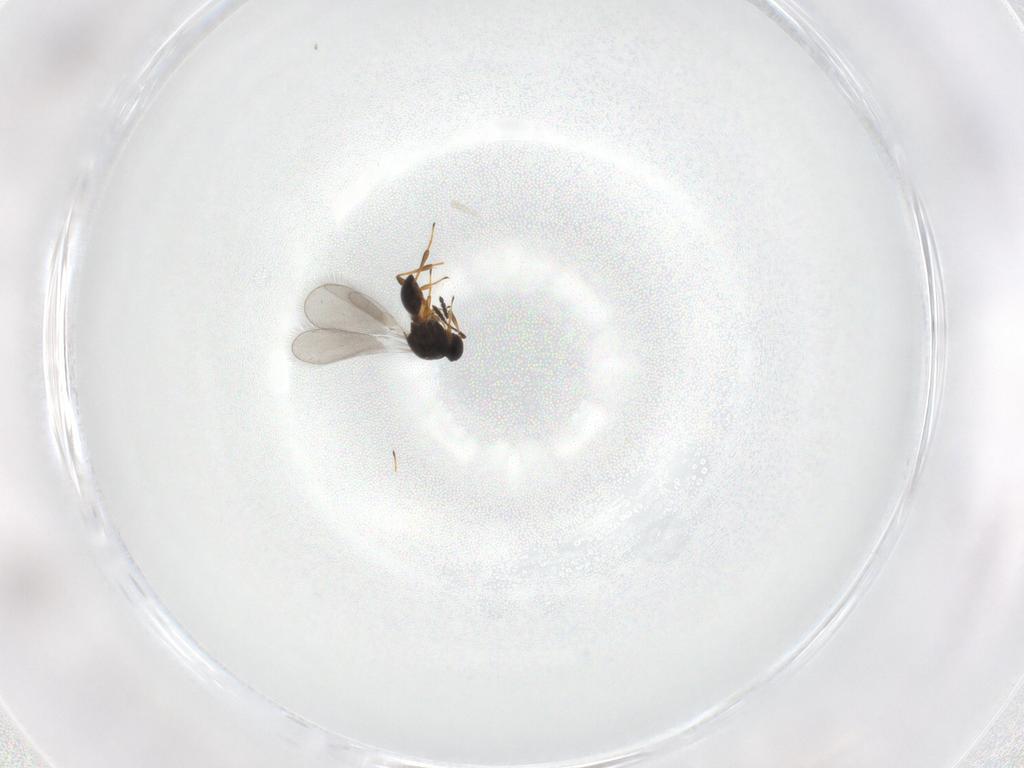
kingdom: Animalia
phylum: Arthropoda
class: Insecta
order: Hymenoptera
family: Platygastridae
